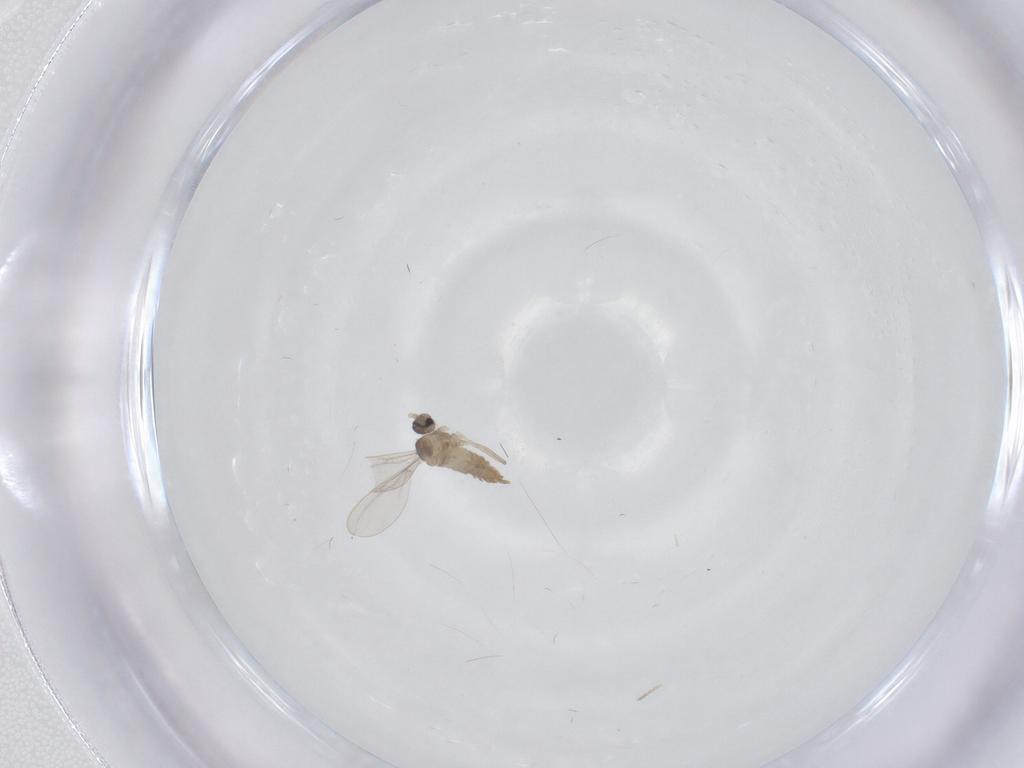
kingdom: Animalia
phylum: Arthropoda
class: Insecta
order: Diptera
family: Cecidomyiidae
